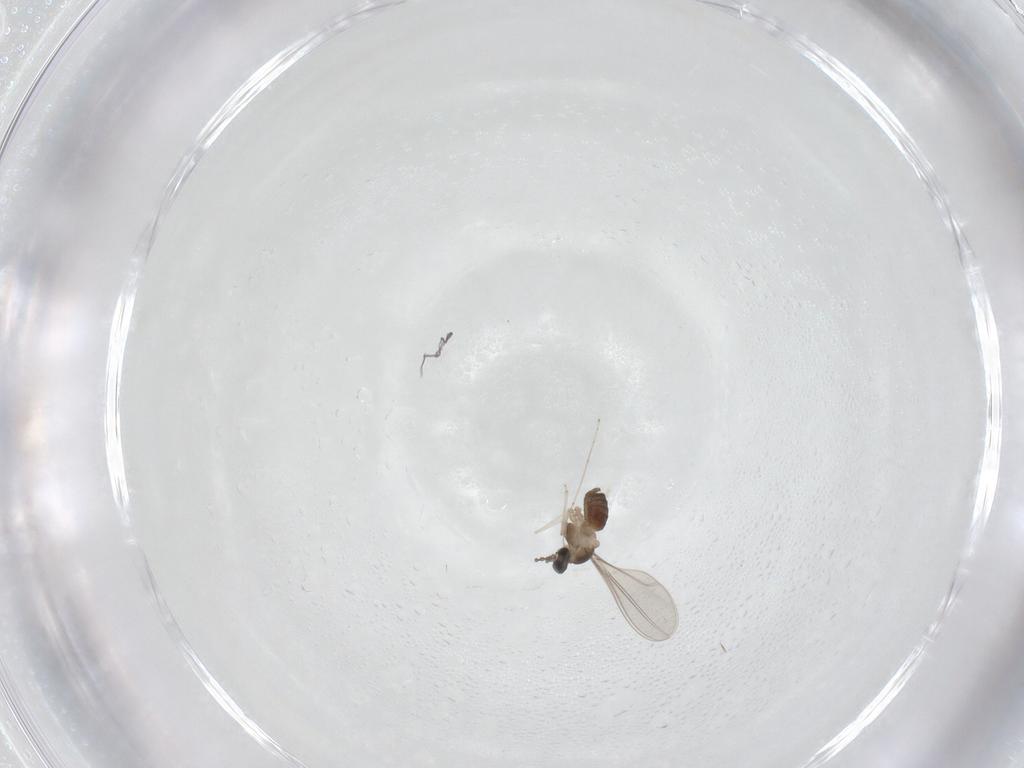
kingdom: Animalia
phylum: Arthropoda
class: Insecta
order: Diptera
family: Cecidomyiidae
